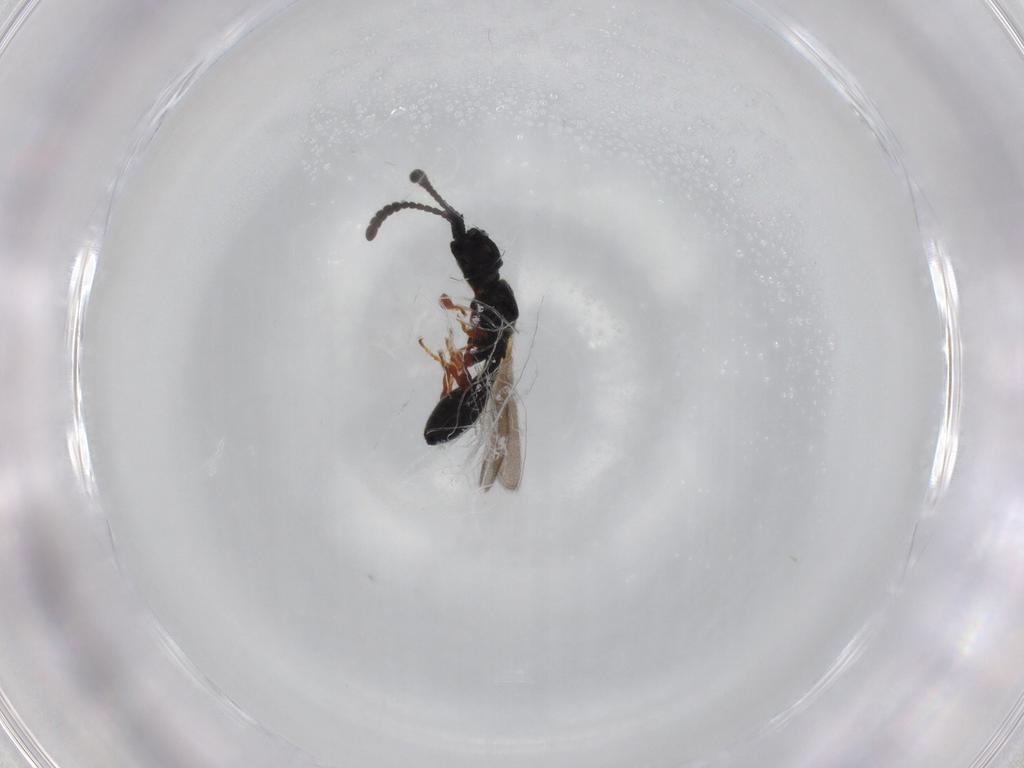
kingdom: Animalia
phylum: Arthropoda
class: Insecta
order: Hymenoptera
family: Diapriidae
